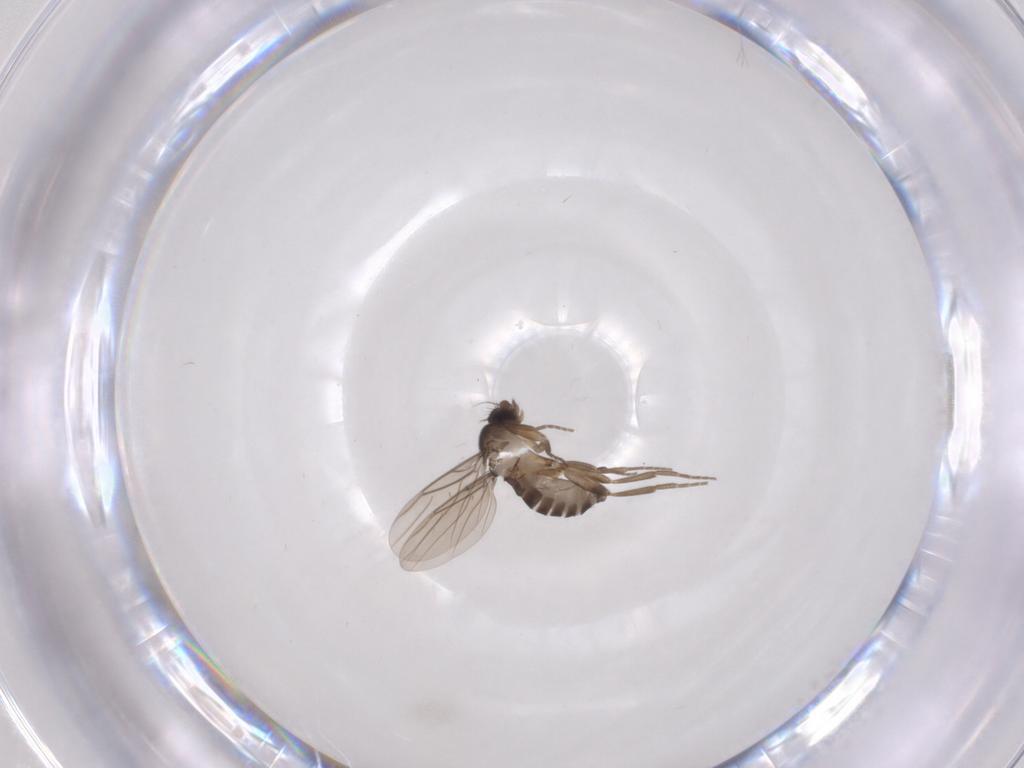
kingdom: Animalia
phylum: Arthropoda
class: Insecta
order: Diptera
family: Phoridae
